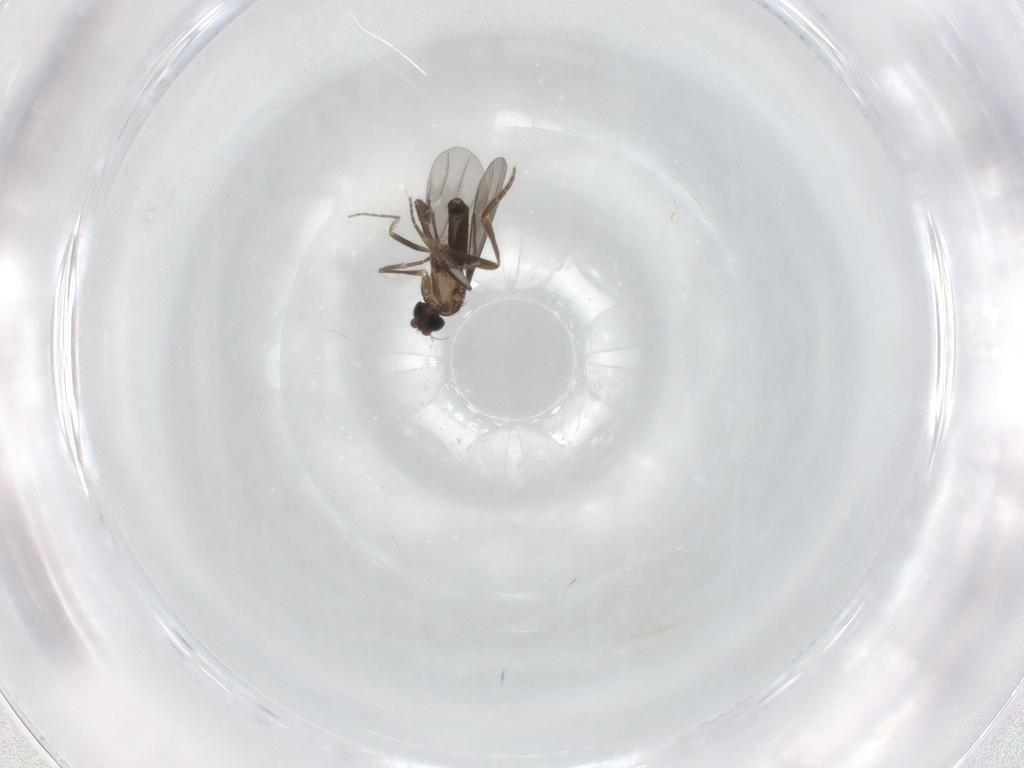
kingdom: Animalia
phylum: Arthropoda
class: Insecta
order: Diptera
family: Phoridae
